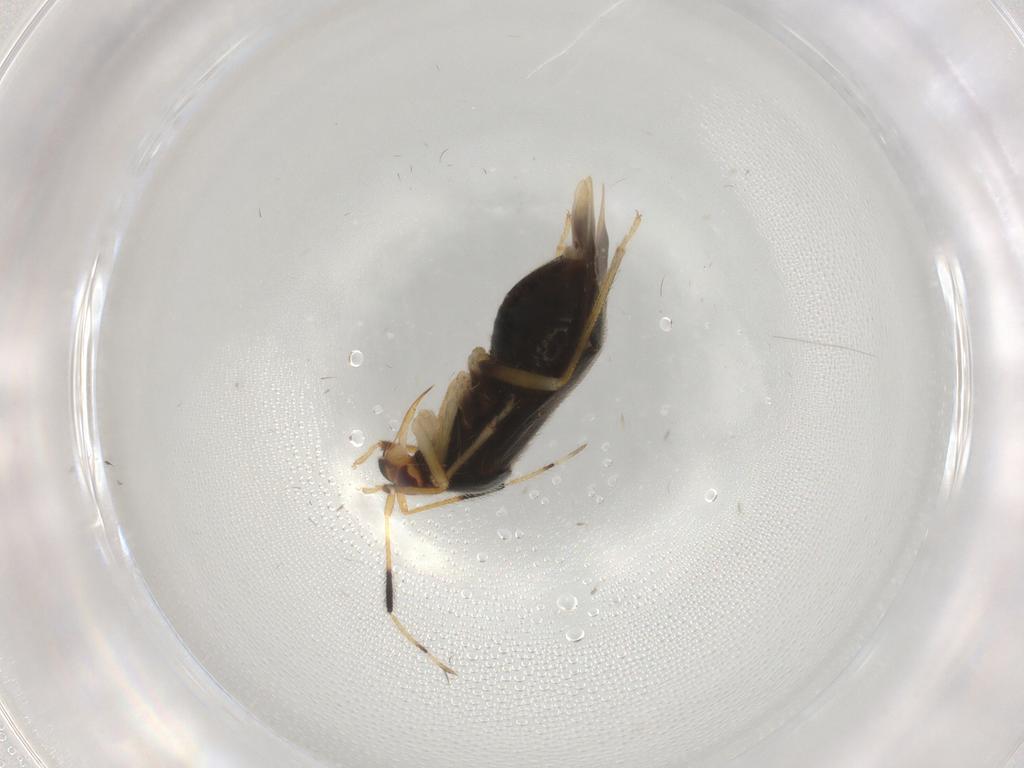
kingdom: Animalia
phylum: Arthropoda
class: Insecta
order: Hemiptera
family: Miridae
